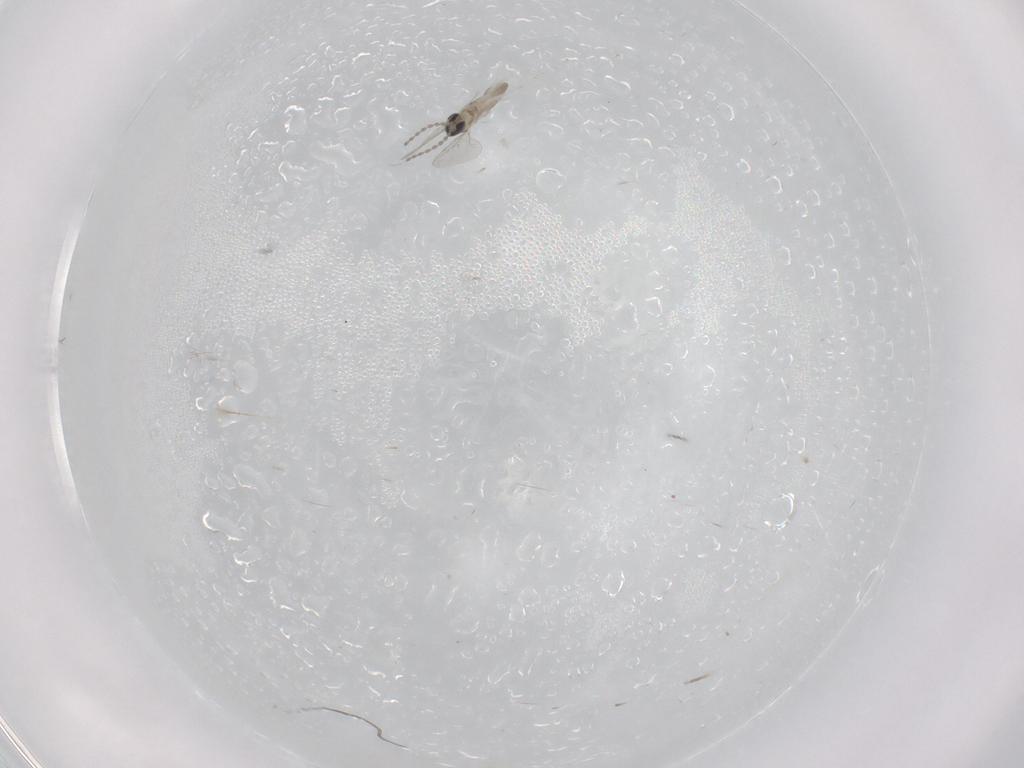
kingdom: Animalia
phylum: Arthropoda
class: Insecta
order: Diptera
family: Cecidomyiidae
